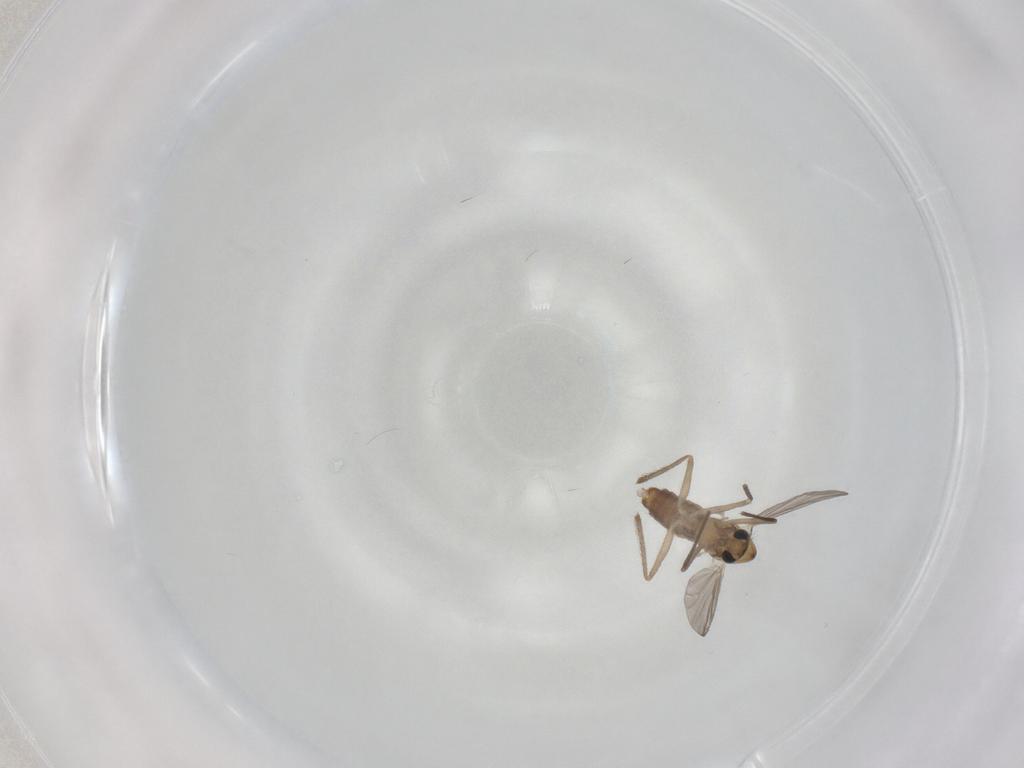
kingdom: Animalia
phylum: Arthropoda
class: Insecta
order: Diptera
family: Chironomidae
